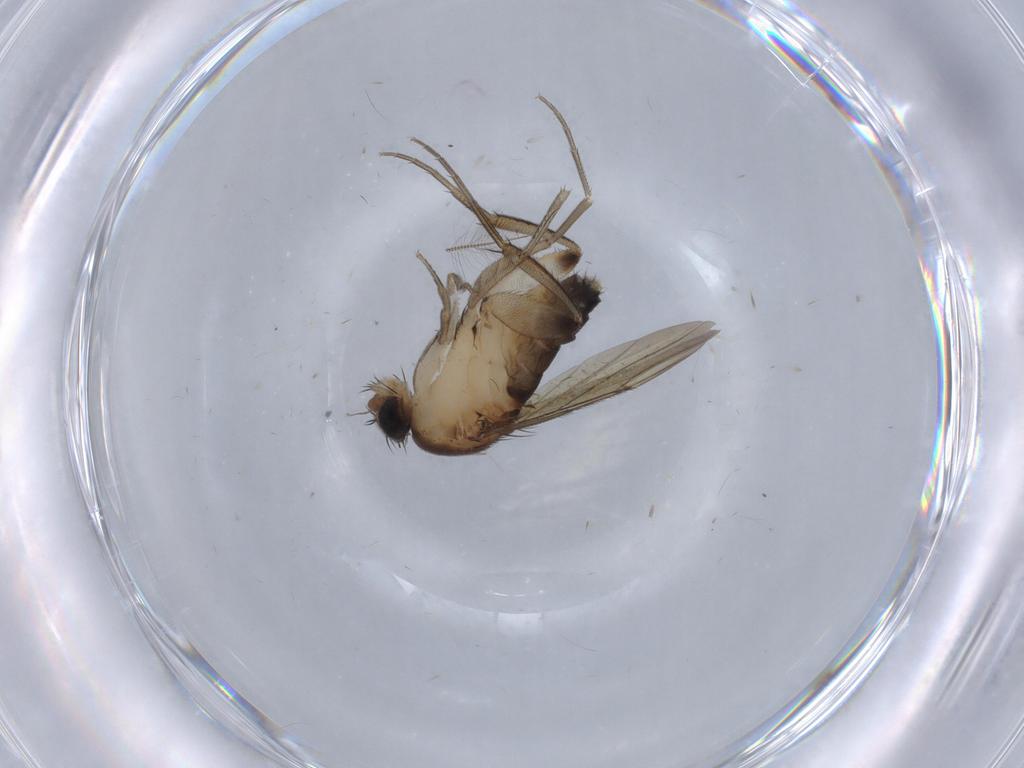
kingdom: Animalia
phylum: Arthropoda
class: Insecta
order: Diptera
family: Phoridae
